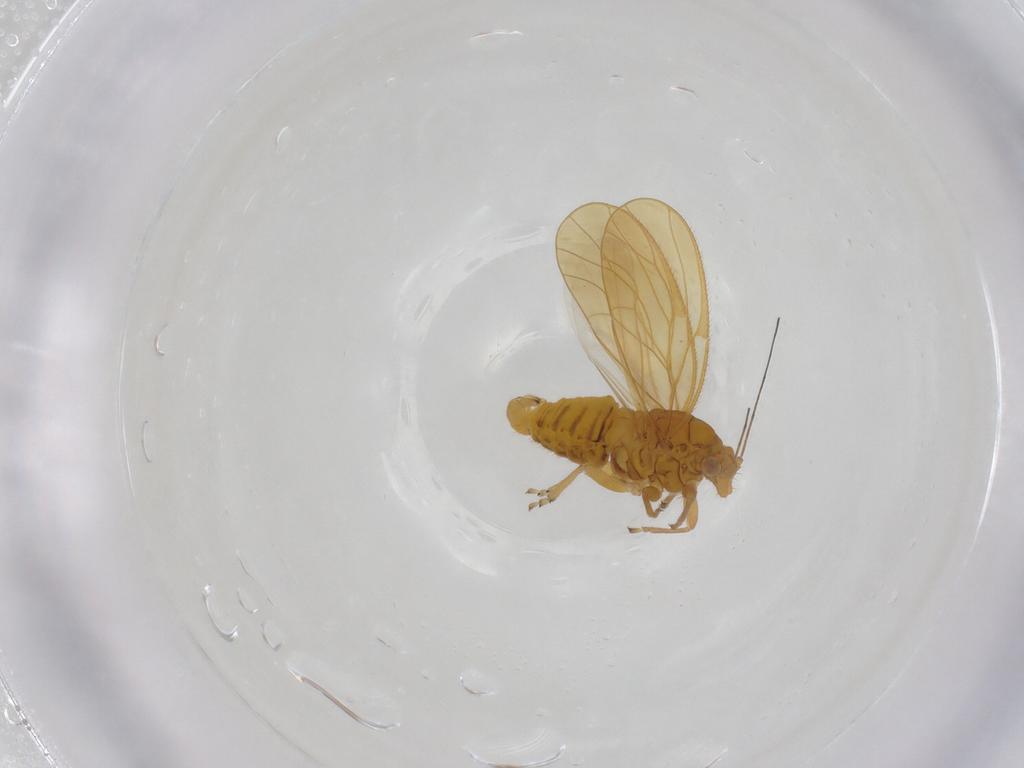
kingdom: Animalia
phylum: Arthropoda
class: Insecta
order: Hemiptera
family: Psyllidae
